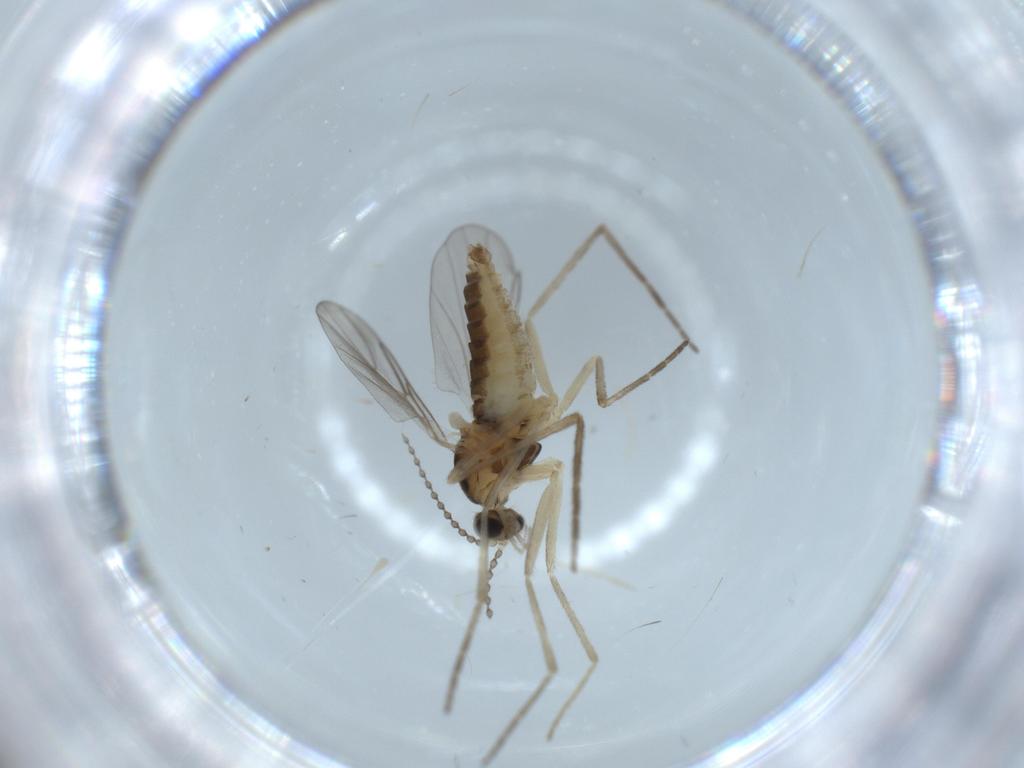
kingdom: Animalia
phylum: Arthropoda
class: Insecta
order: Diptera
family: Cecidomyiidae
